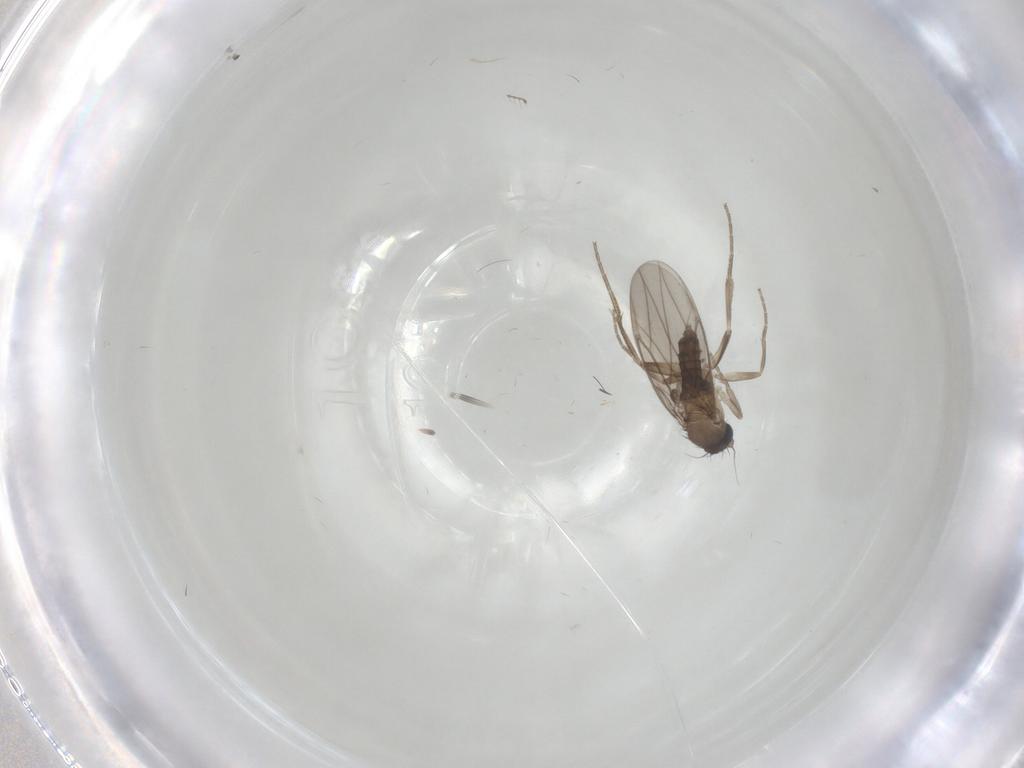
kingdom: Animalia
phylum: Arthropoda
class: Insecta
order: Diptera
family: Chironomidae
